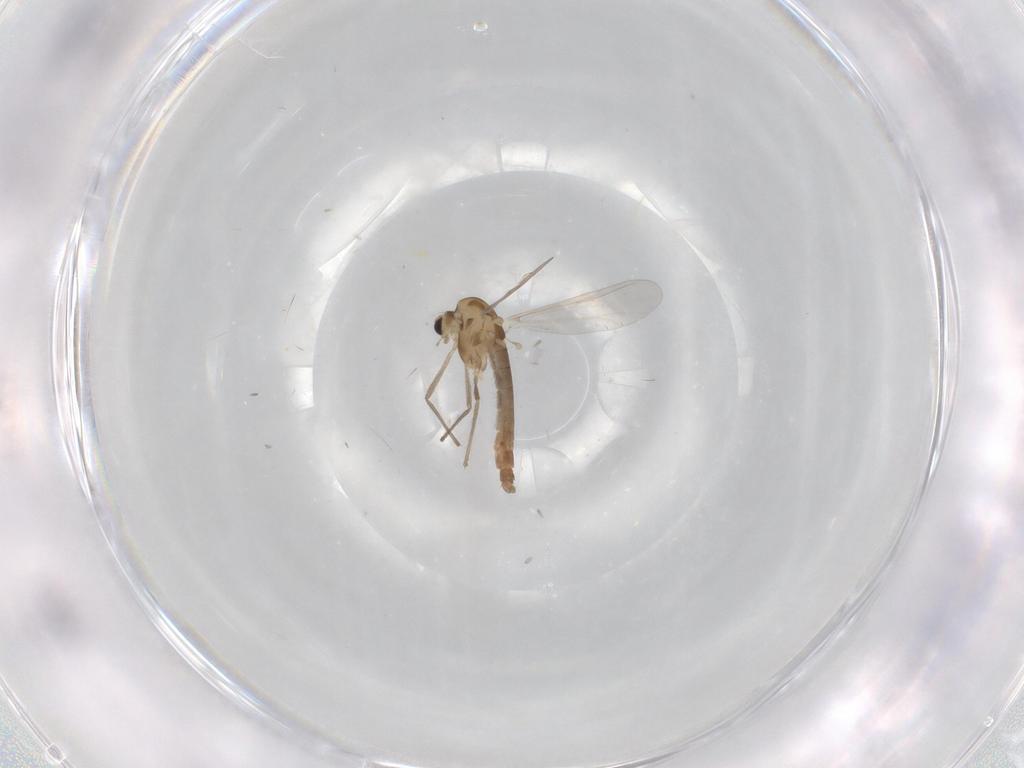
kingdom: Animalia
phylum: Arthropoda
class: Insecta
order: Diptera
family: Chironomidae
